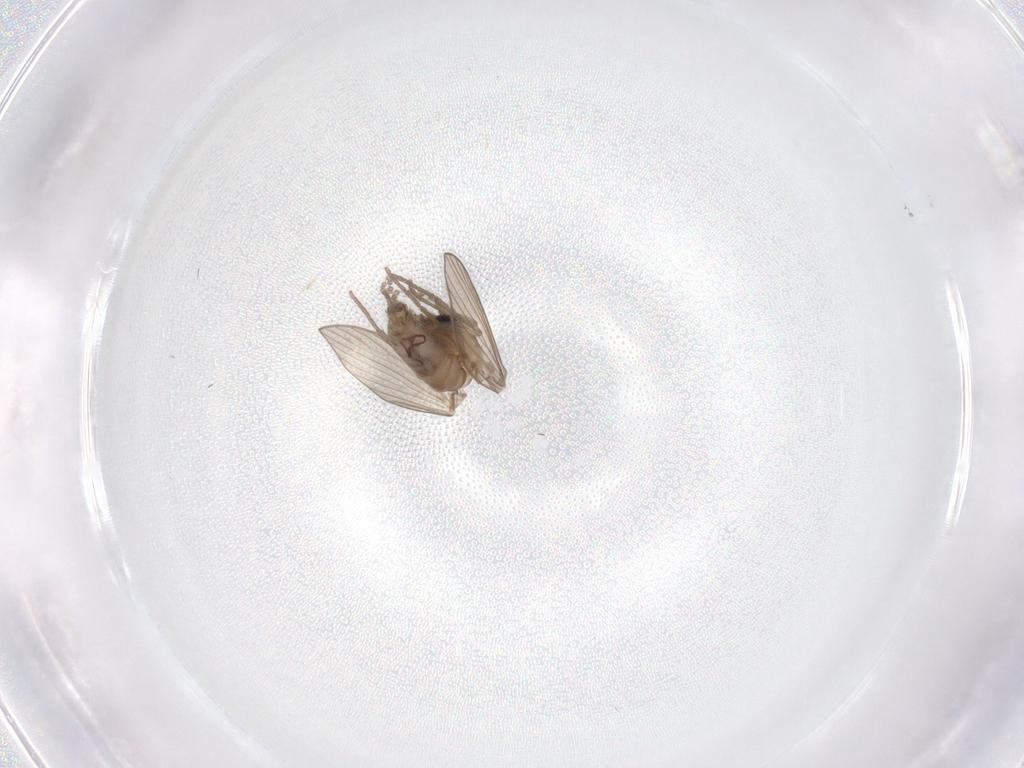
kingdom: Animalia
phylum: Arthropoda
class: Insecta
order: Diptera
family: Psychodidae
